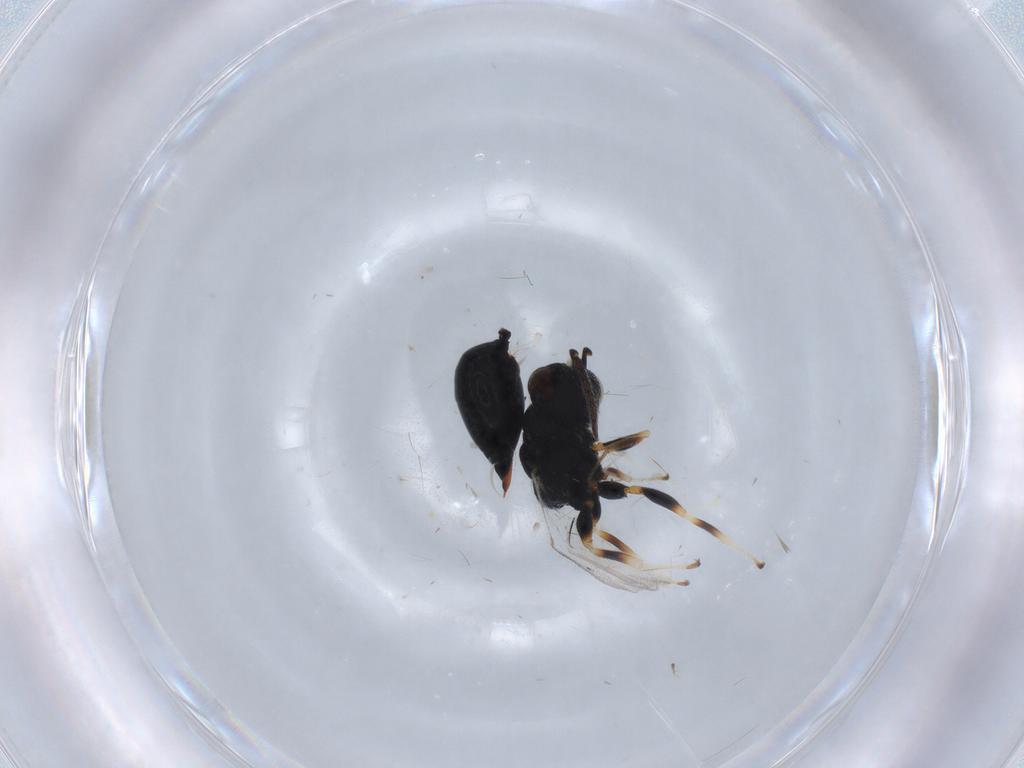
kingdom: Animalia
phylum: Arthropoda
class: Insecta
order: Hymenoptera
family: Eurytomidae
